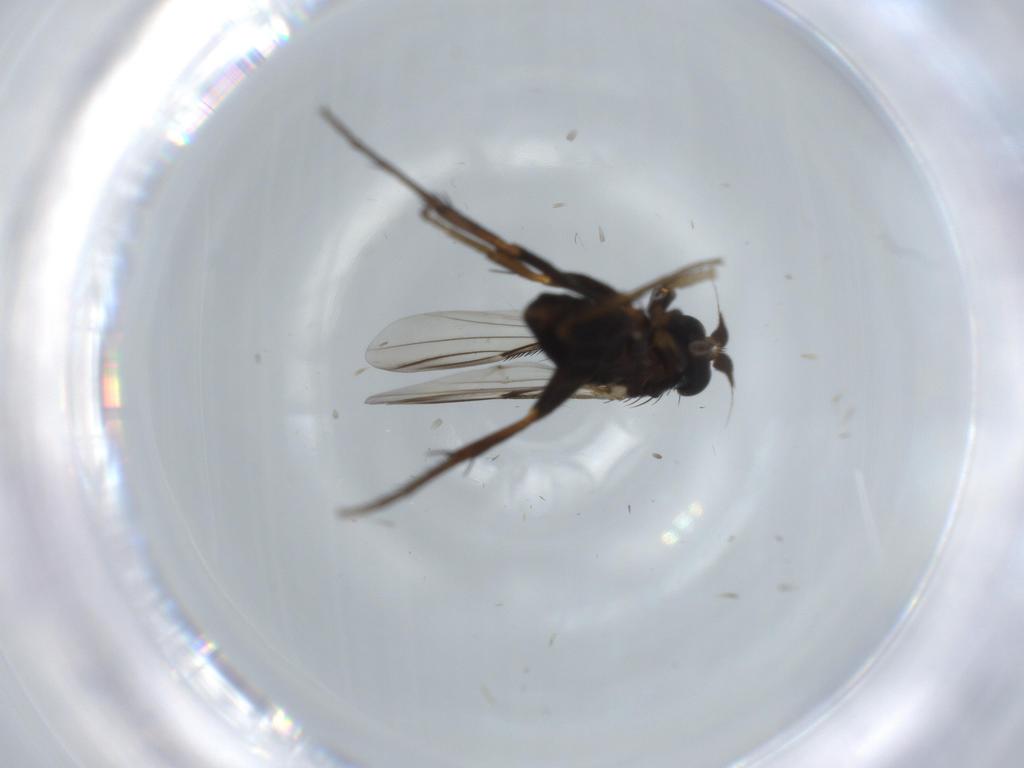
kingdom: Animalia
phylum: Arthropoda
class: Insecta
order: Diptera
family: Phoridae
